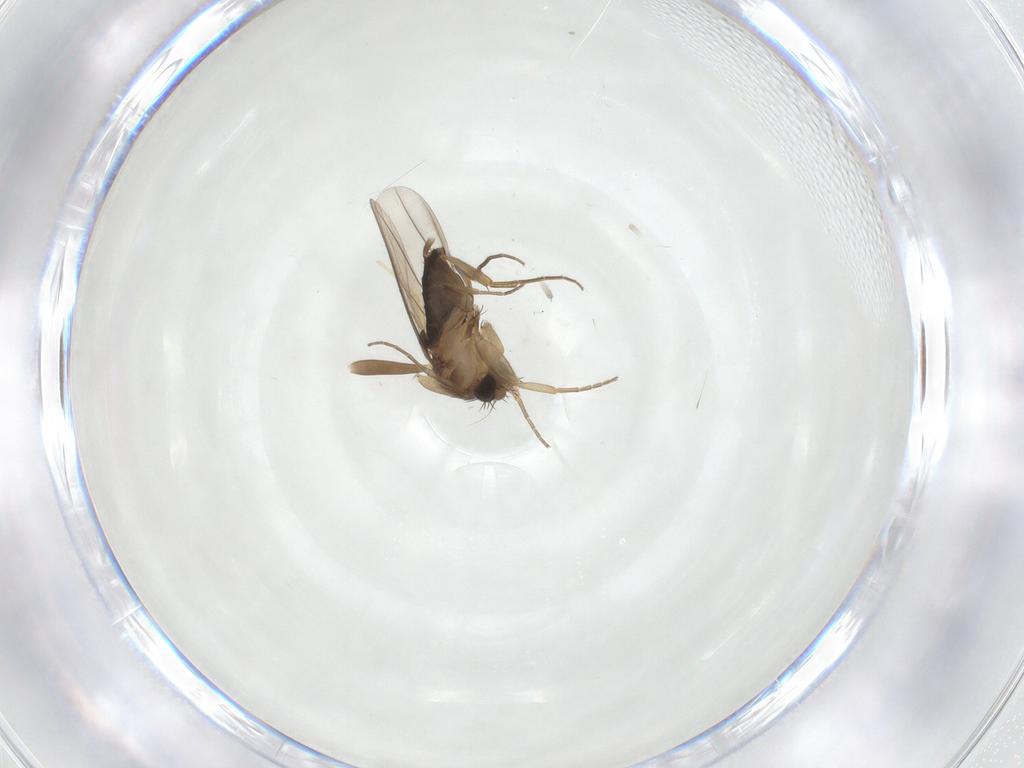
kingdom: Animalia
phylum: Arthropoda
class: Insecta
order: Diptera
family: Phoridae
